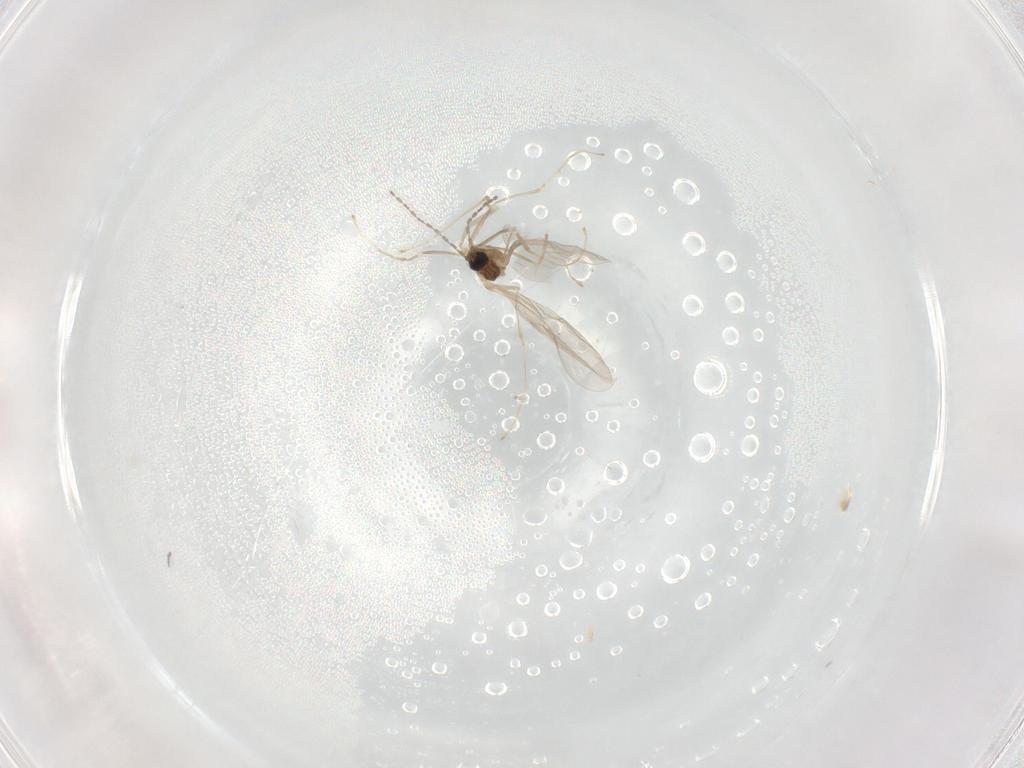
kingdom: Animalia
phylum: Arthropoda
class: Insecta
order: Diptera
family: Cecidomyiidae
